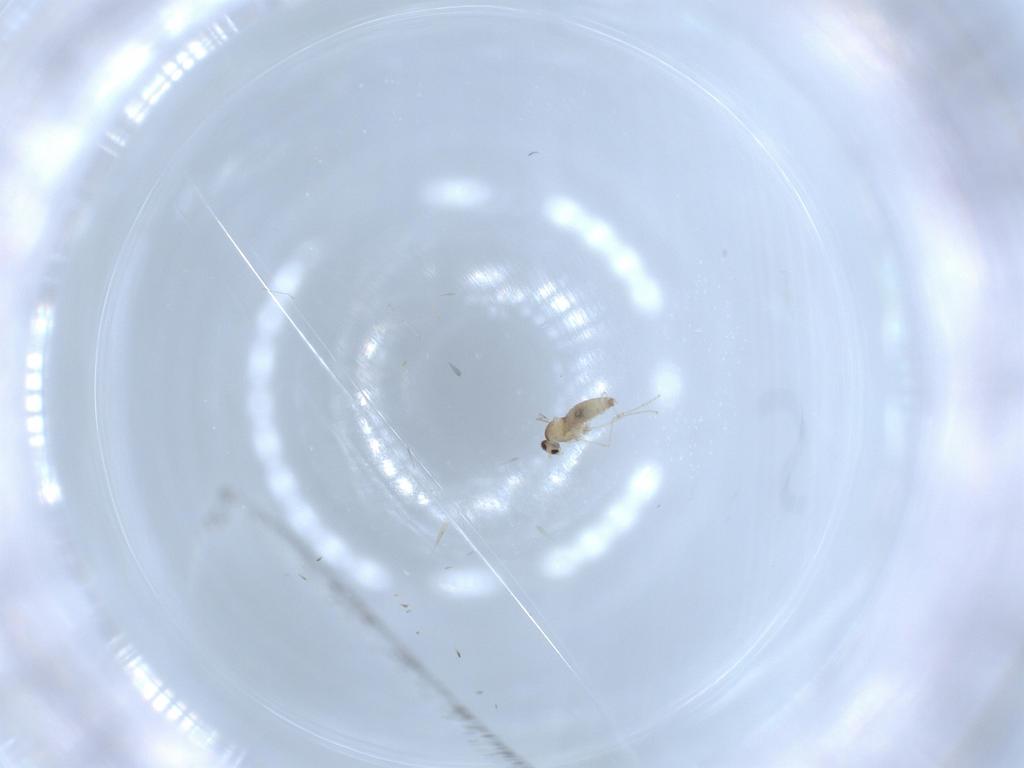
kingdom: Animalia
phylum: Arthropoda
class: Insecta
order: Diptera
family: Cecidomyiidae
